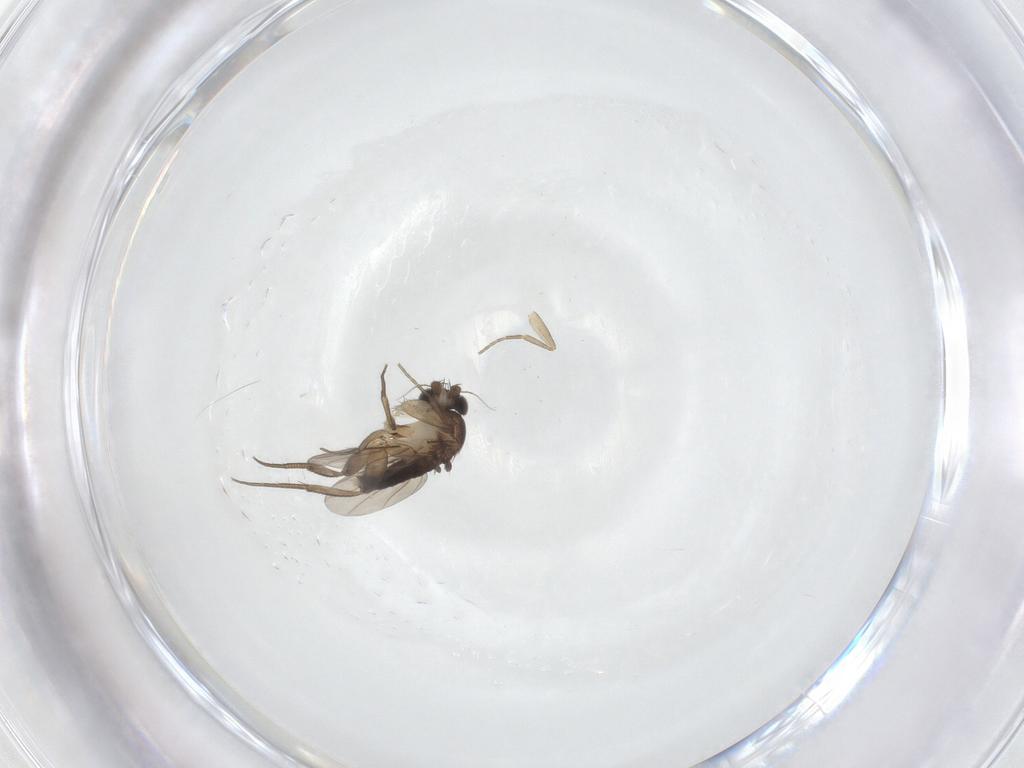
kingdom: Animalia
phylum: Arthropoda
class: Insecta
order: Diptera
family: Phoridae
